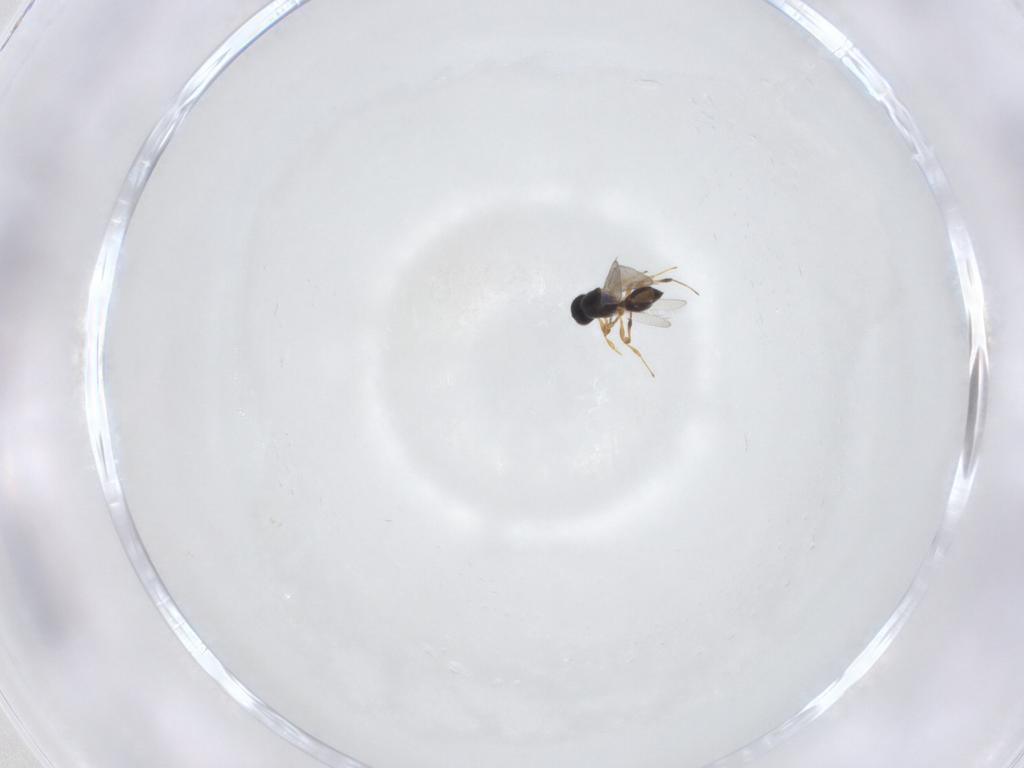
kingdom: Animalia
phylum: Arthropoda
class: Insecta
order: Hymenoptera
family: Platygastridae
